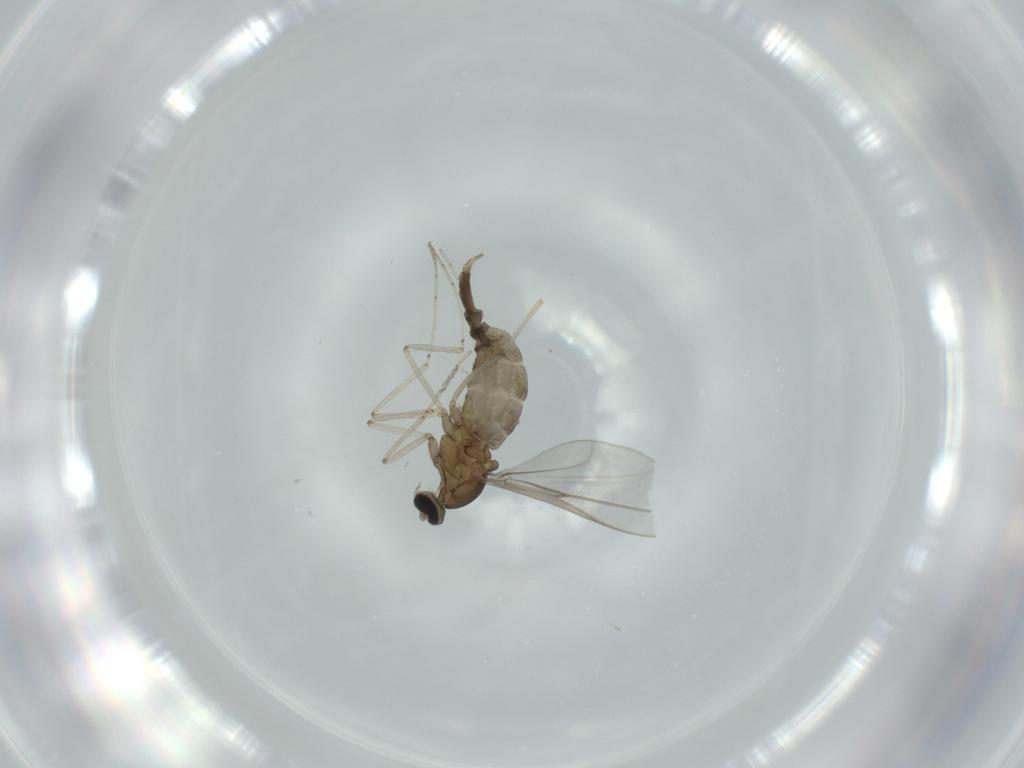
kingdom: Animalia
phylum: Arthropoda
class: Insecta
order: Diptera
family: Cecidomyiidae
